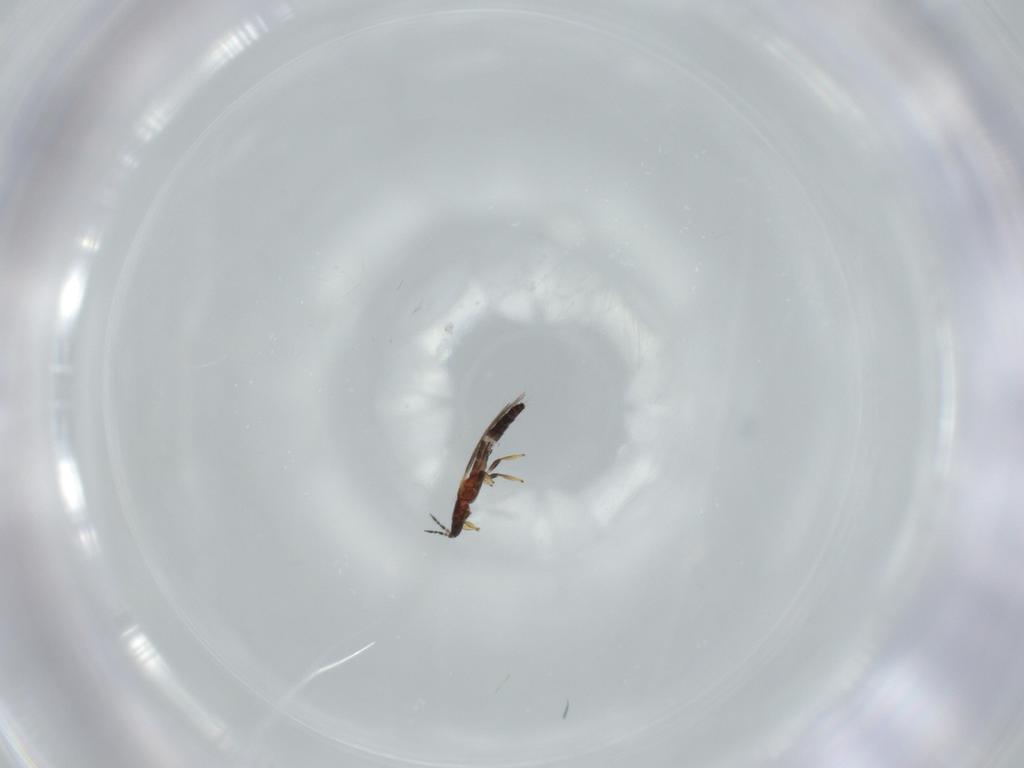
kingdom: Animalia
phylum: Arthropoda
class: Insecta
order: Thysanoptera
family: Thripidae
